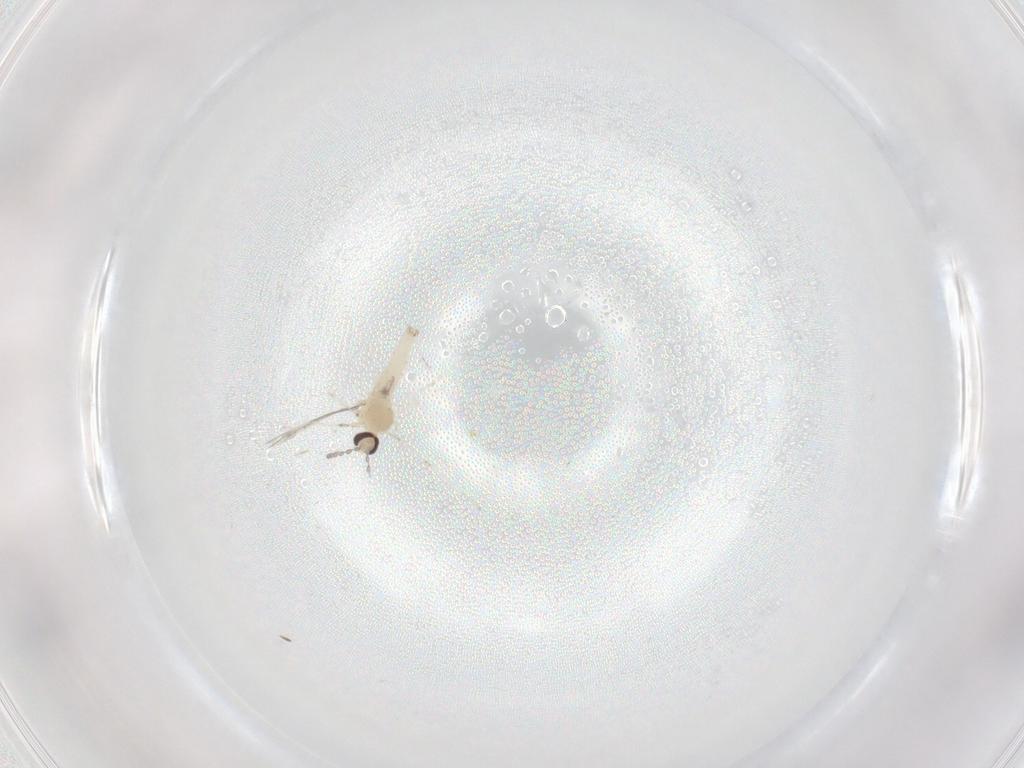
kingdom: Animalia
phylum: Arthropoda
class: Insecta
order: Diptera
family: Cecidomyiidae
